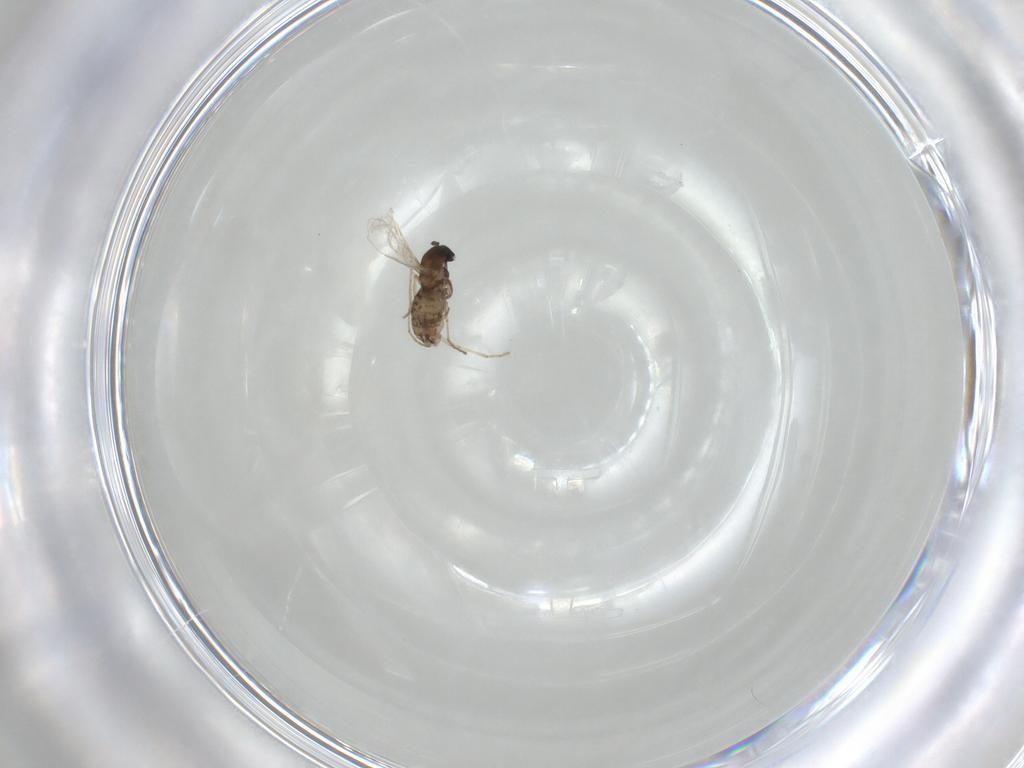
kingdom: Animalia
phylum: Arthropoda
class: Insecta
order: Diptera
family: Cecidomyiidae
